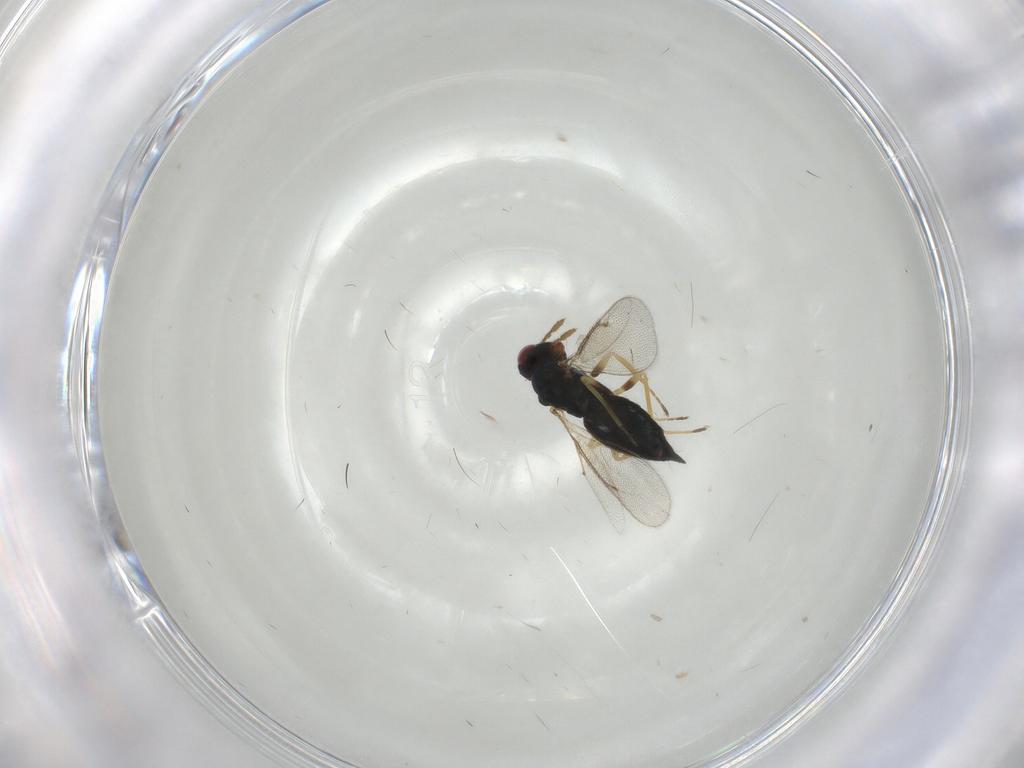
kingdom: Animalia
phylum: Arthropoda
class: Insecta
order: Hymenoptera
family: Eulophidae
